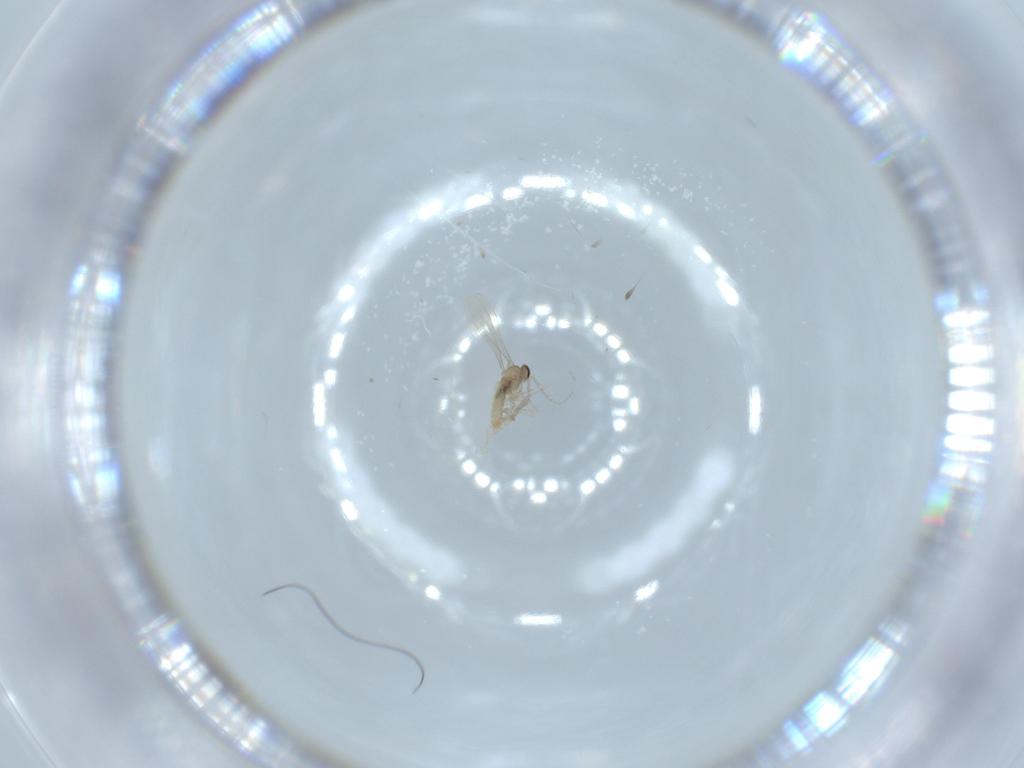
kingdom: Animalia
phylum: Arthropoda
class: Insecta
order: Diptera
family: Cecidomyiidae
